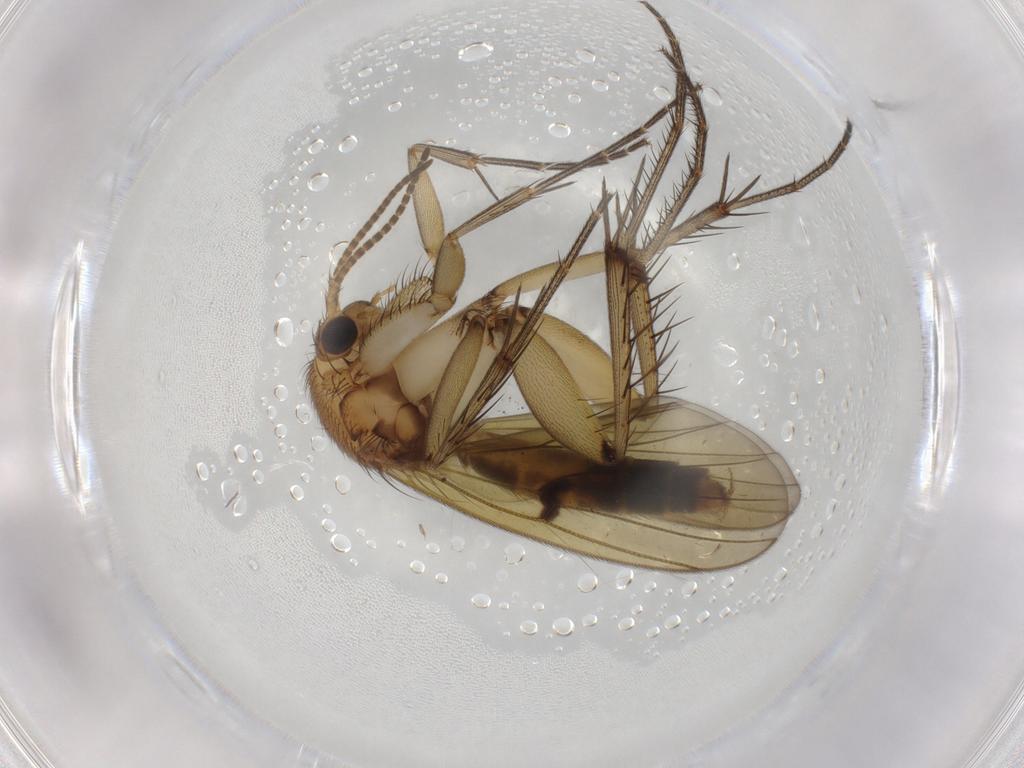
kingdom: Animalia
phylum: Arthropoda
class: Insecta
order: Diptera
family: Mycetophilidae
